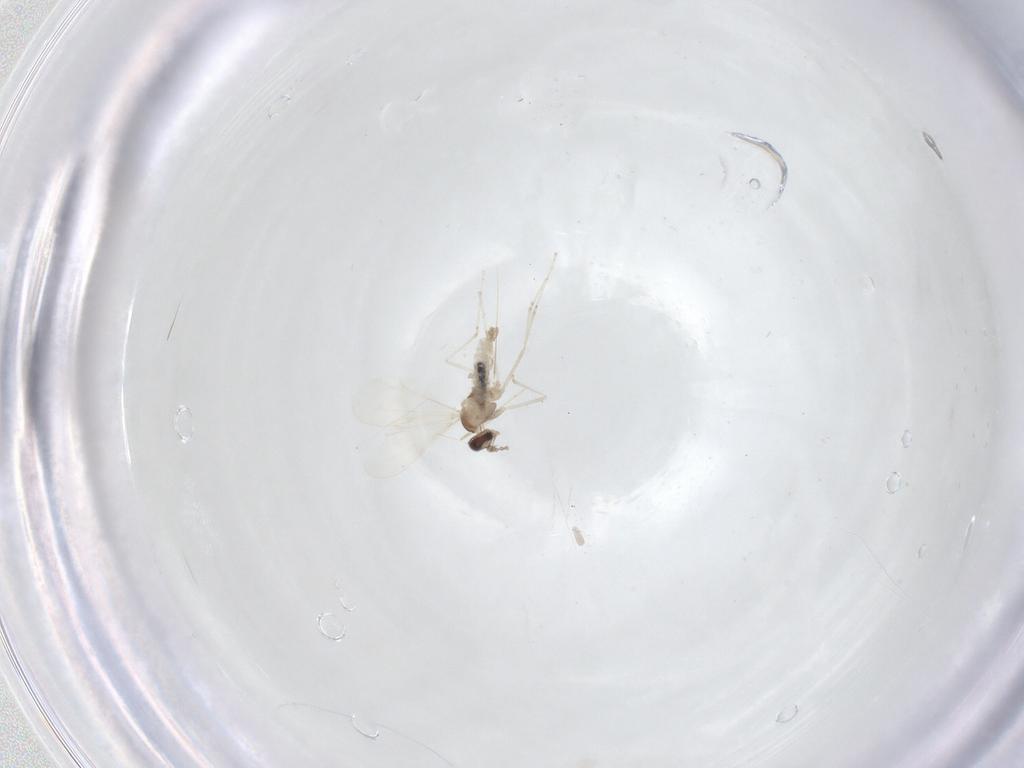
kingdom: Animalia
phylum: Arthropoda
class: Insecta
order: Diptera
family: Cecidomyiidae
